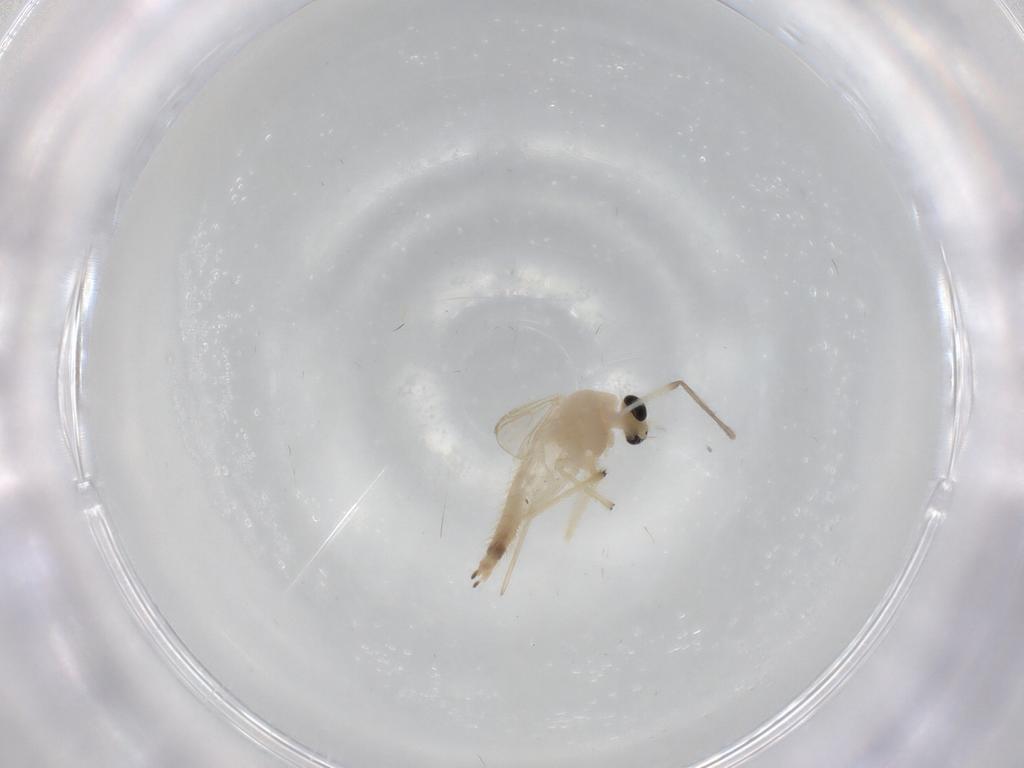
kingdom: Animalia
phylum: Arthropoda
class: Insecta
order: Diptera
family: Chironomidae
